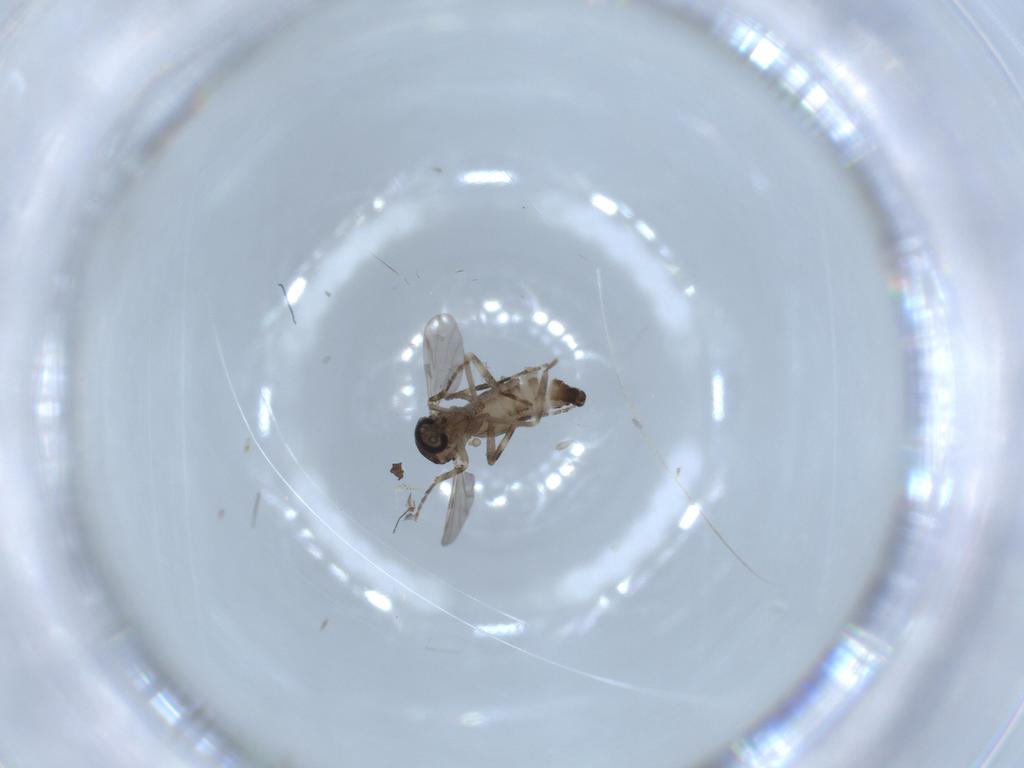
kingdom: Animalia
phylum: Arthropoda
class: Insecta
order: Diptera
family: Ceratopogonidae
